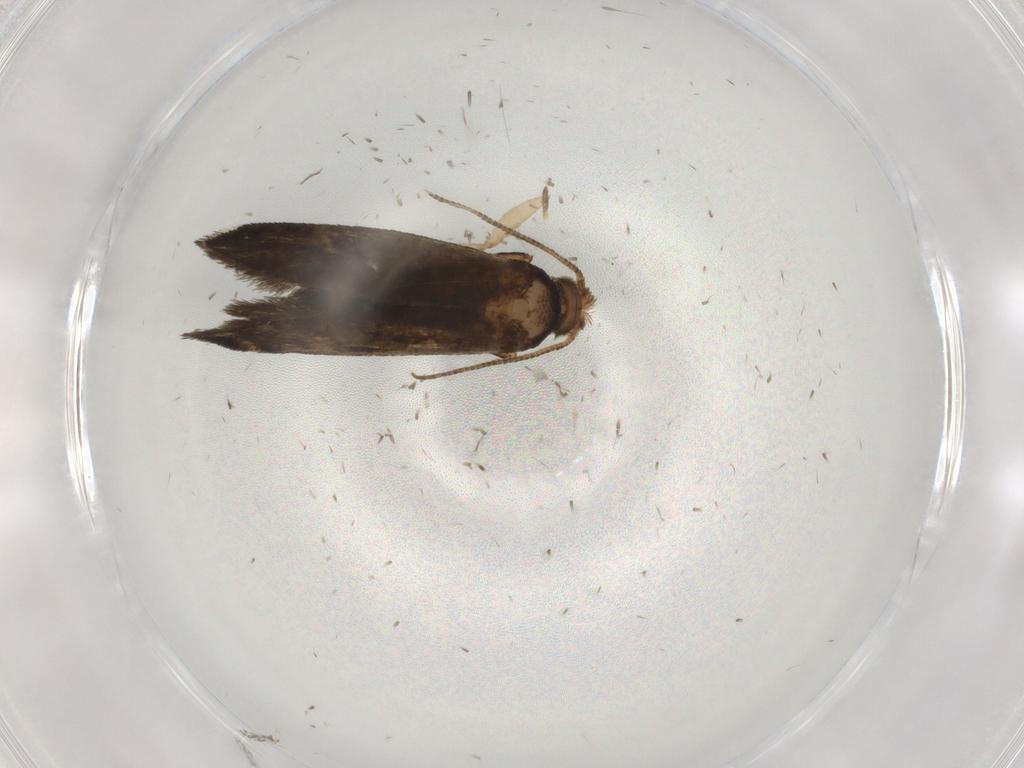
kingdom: Animalia
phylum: Arthropoda
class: Insecta
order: Lepidoptera
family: Crambidae
